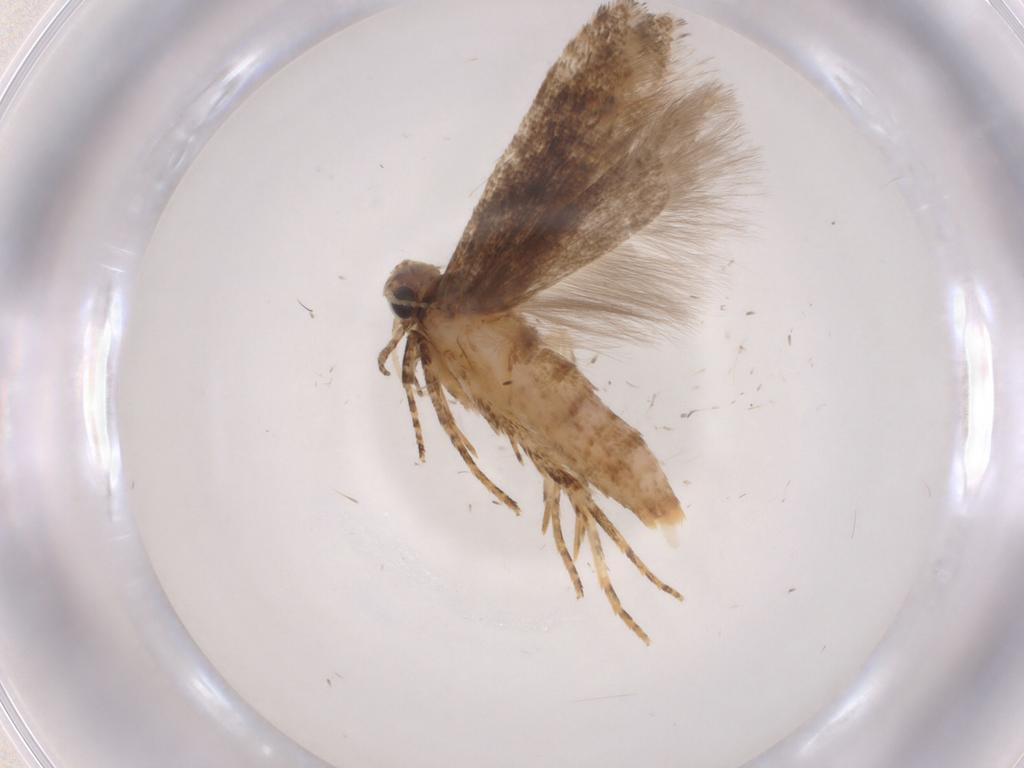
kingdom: Animalia
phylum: Arthropoda
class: Insecta
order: Lepidoptera
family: Gelechiidae
